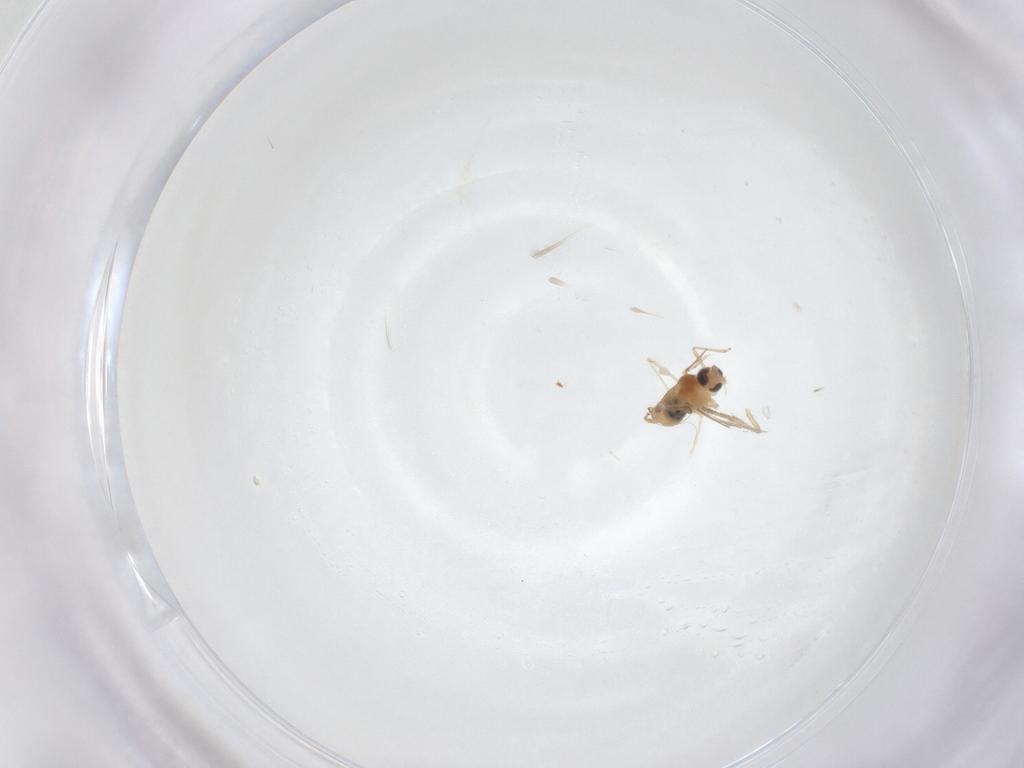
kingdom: Animalia
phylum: Arthropoda
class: Insecta
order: Diptera
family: Cecidomyiidae
